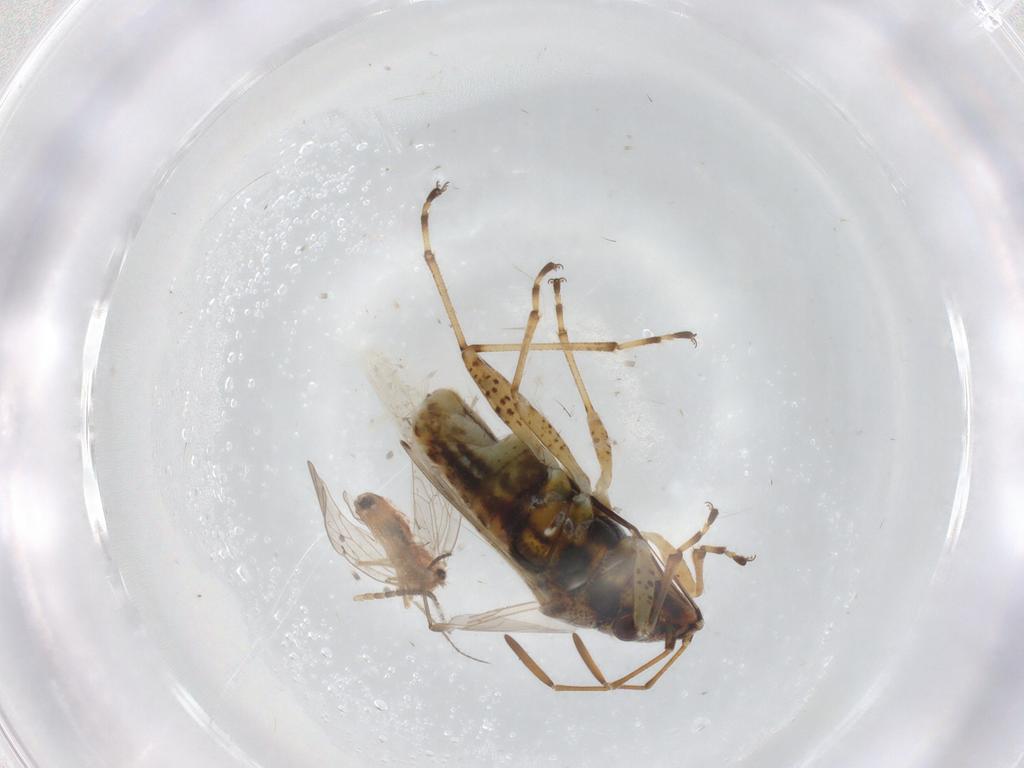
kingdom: Animalia
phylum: Arthropoda
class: Insecta
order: Hemiptera
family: Lygaeidae
